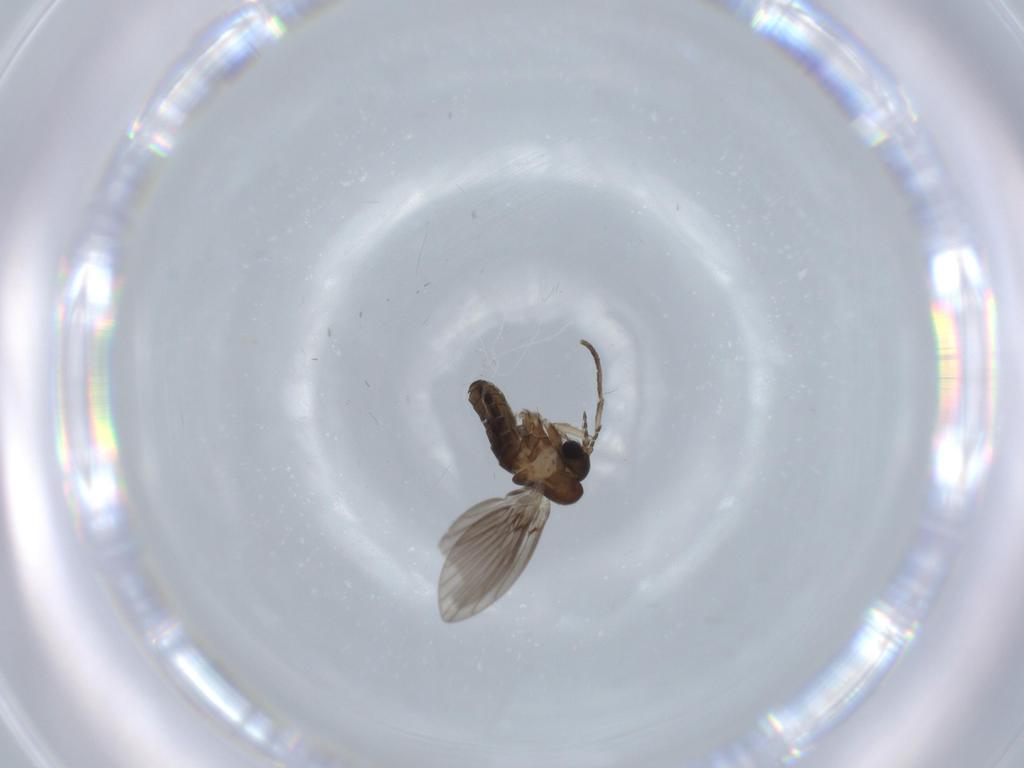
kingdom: Animalia
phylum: Arthropoda
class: Insecta
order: Diptera
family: Psychodidae
